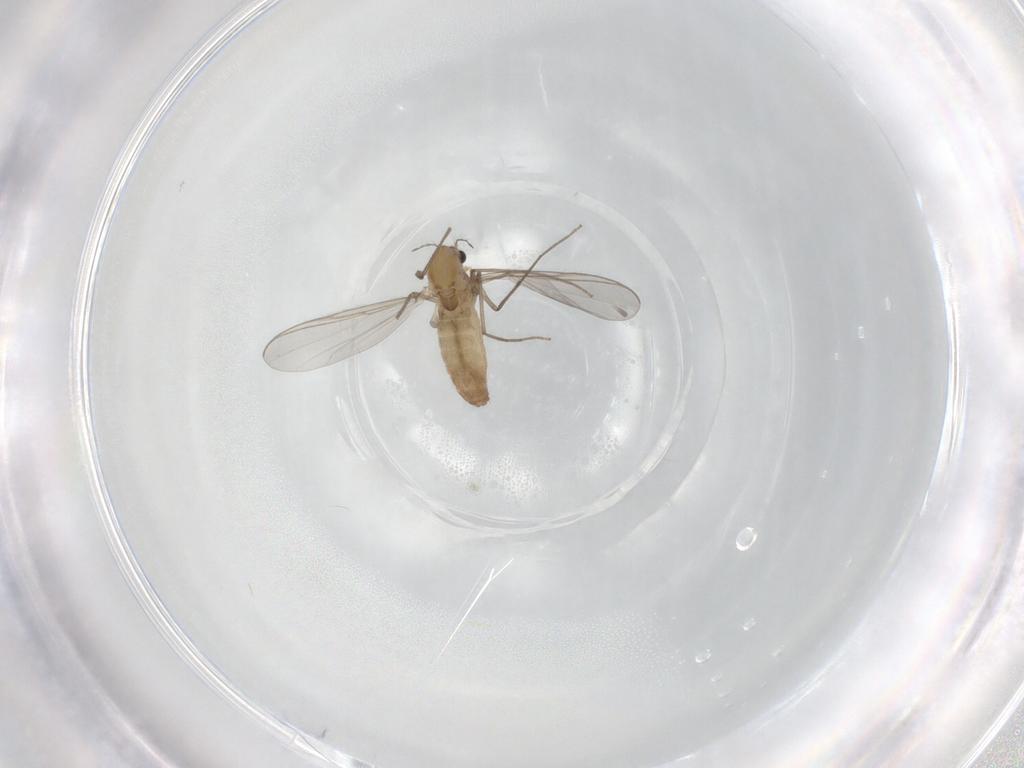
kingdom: Animalia
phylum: Arthropoda
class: Insecta
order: Diptera
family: Chironomidae
